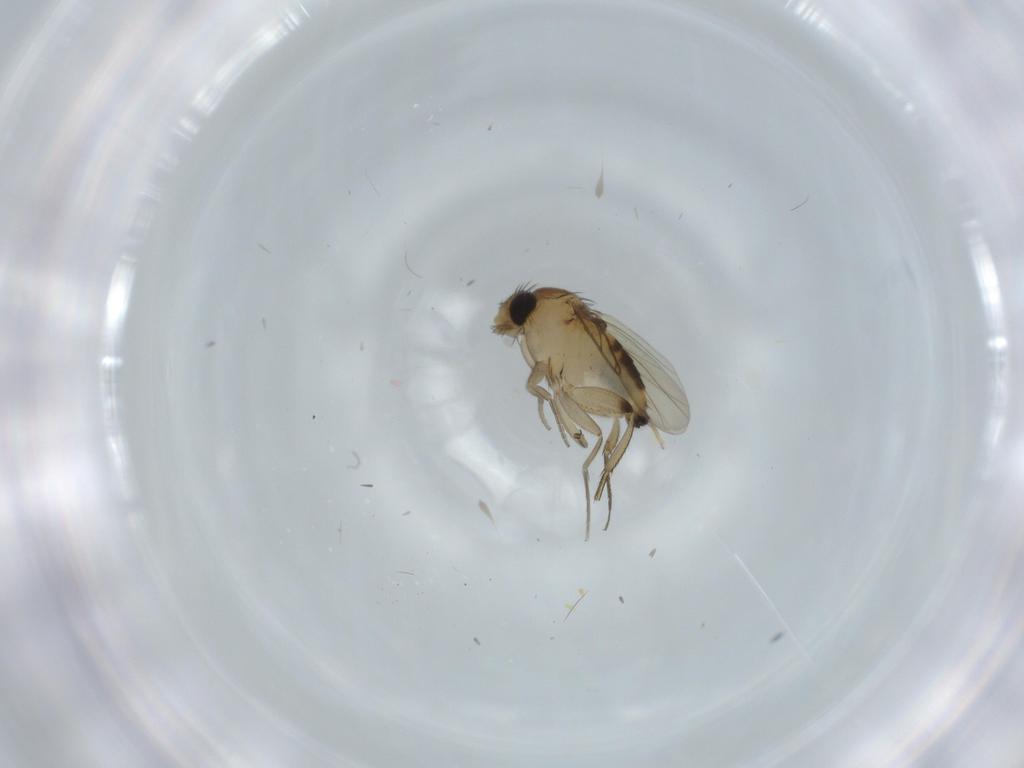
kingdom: Animalia
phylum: Arthropoda
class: Insecta
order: Diptera
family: Phoridae
